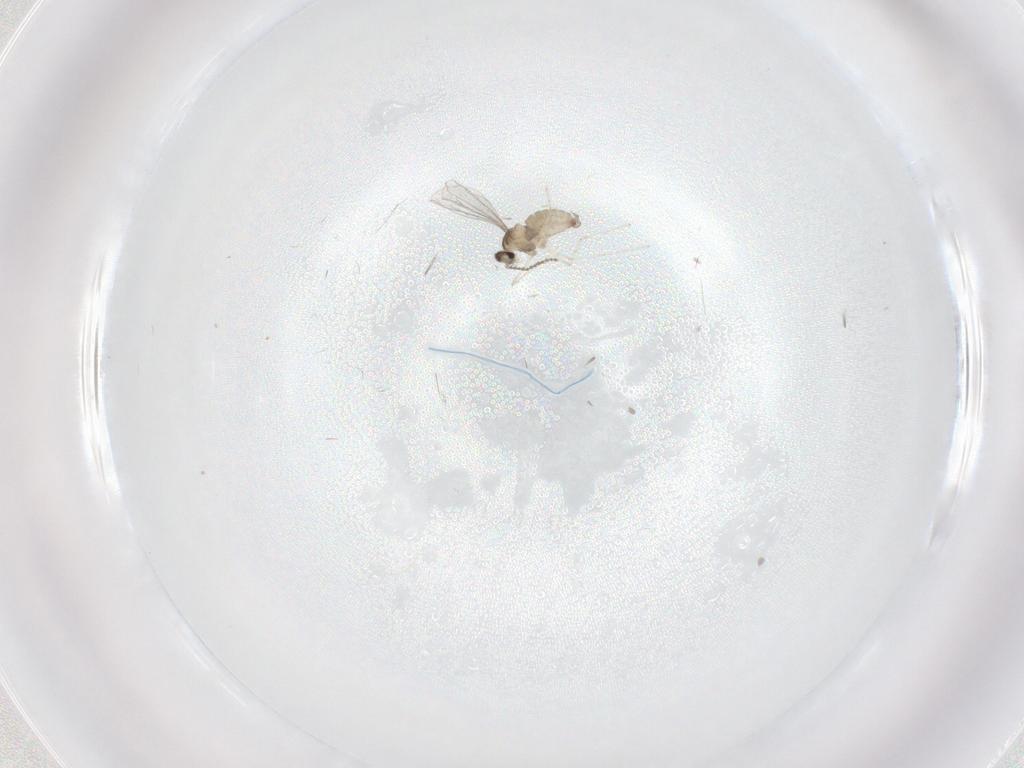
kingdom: Animalia
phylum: Arthropoda
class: Insecta
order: Diptera
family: Cecidomyiidae
